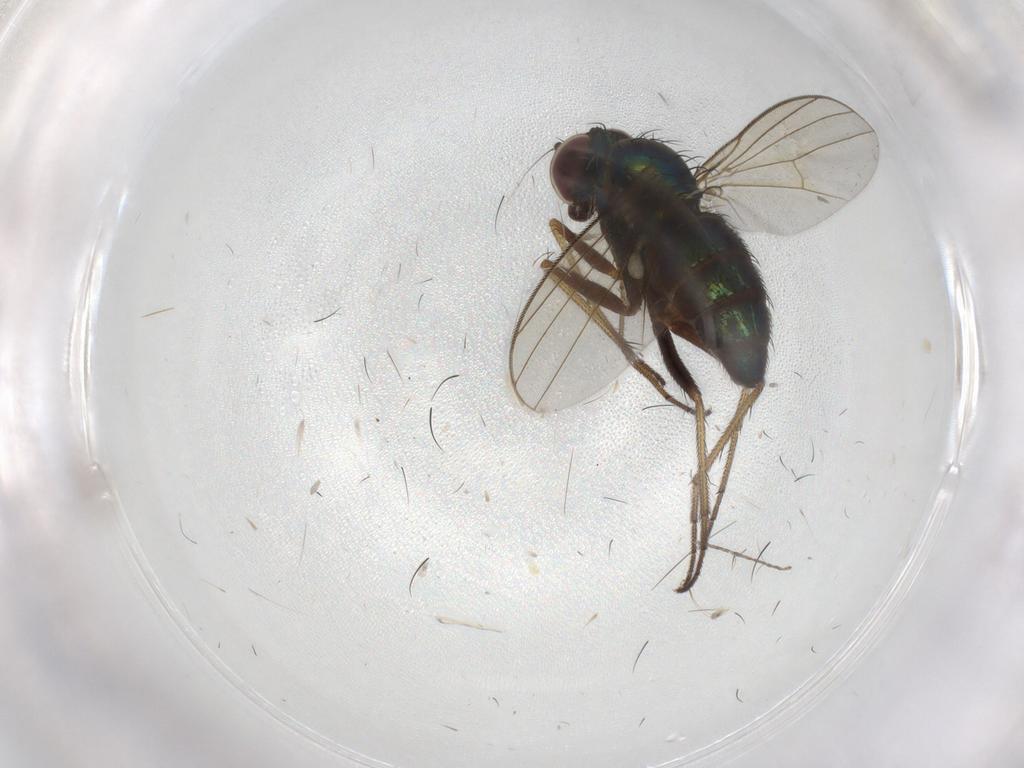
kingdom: Animalia
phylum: Arthropoda
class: Insecta
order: Diptera
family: Dolichopodidae
